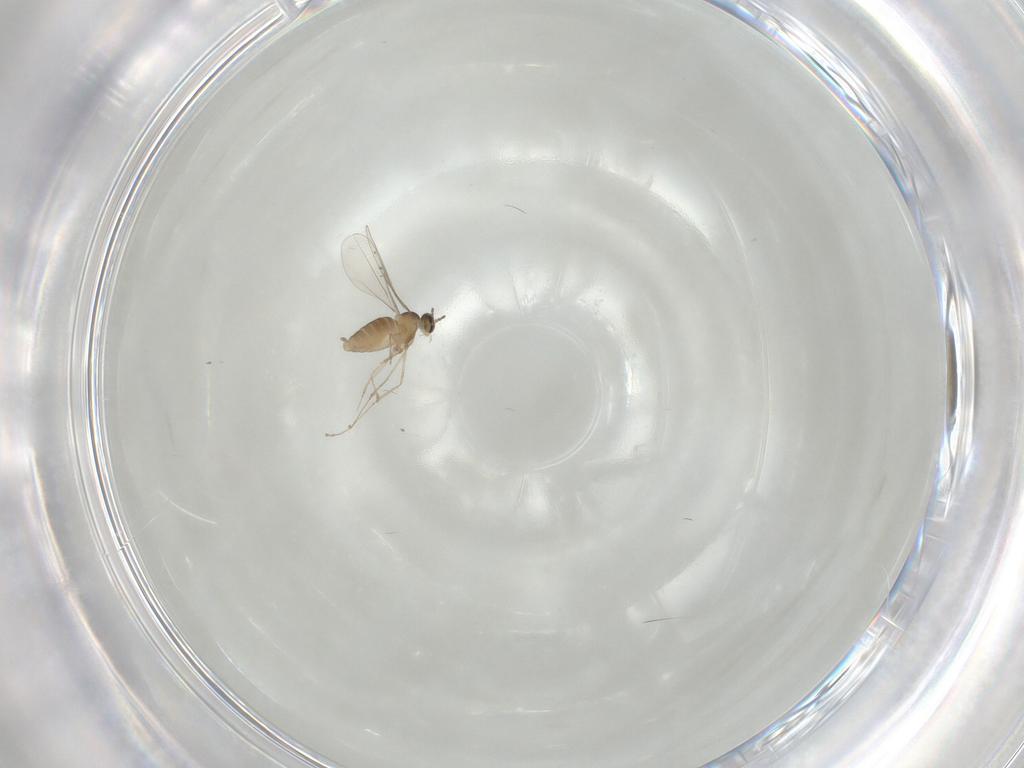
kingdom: Animalia
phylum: Arthropoda
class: Insecta
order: Diptera
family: Cecidomyiidae
